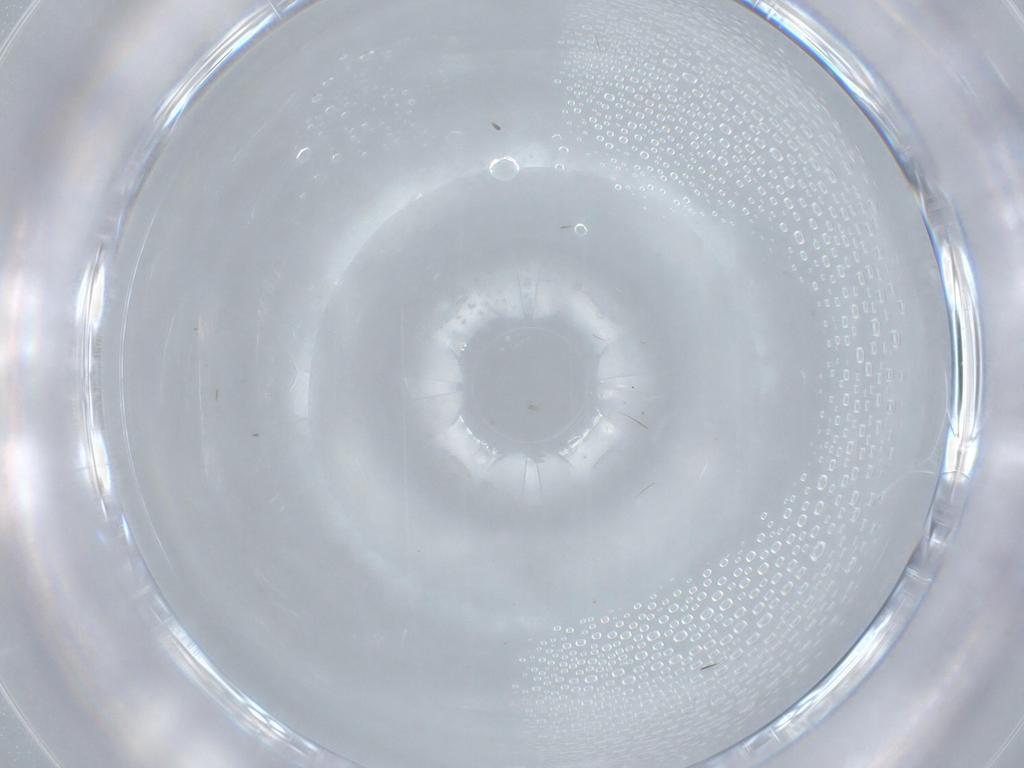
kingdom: Animalia
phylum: Arthropoda
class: Insecta
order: Diptera
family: Chironomidae
